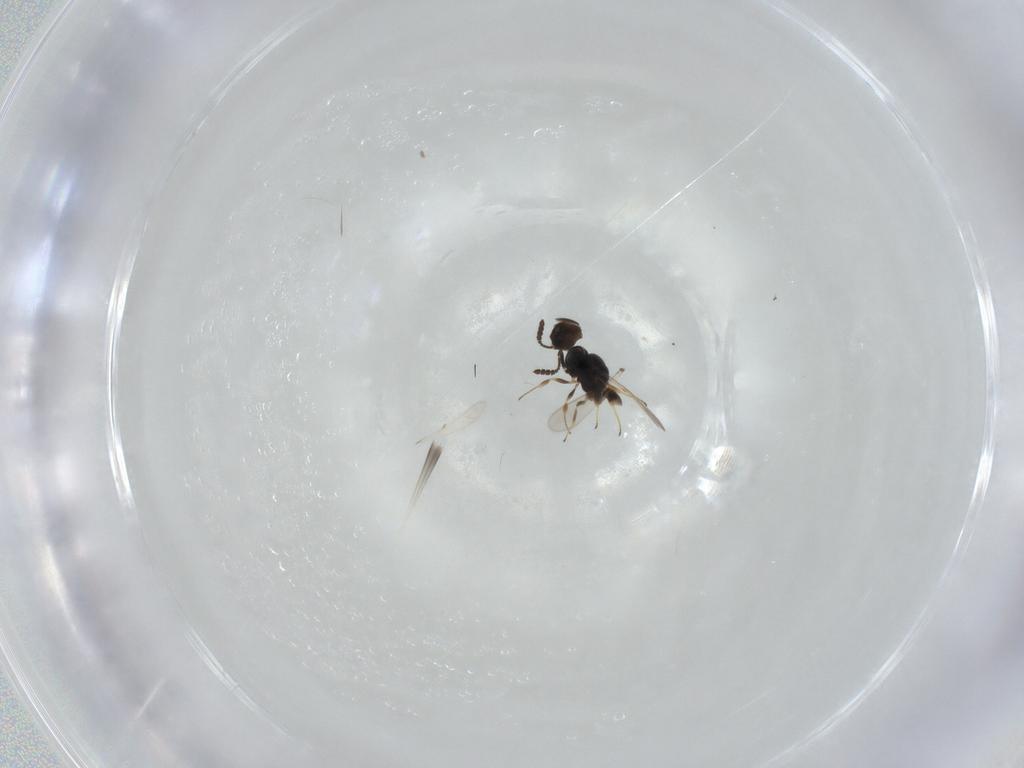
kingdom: Animalia
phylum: Arthropoda
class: Insecta
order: Hymenoptera
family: Scelionidae
